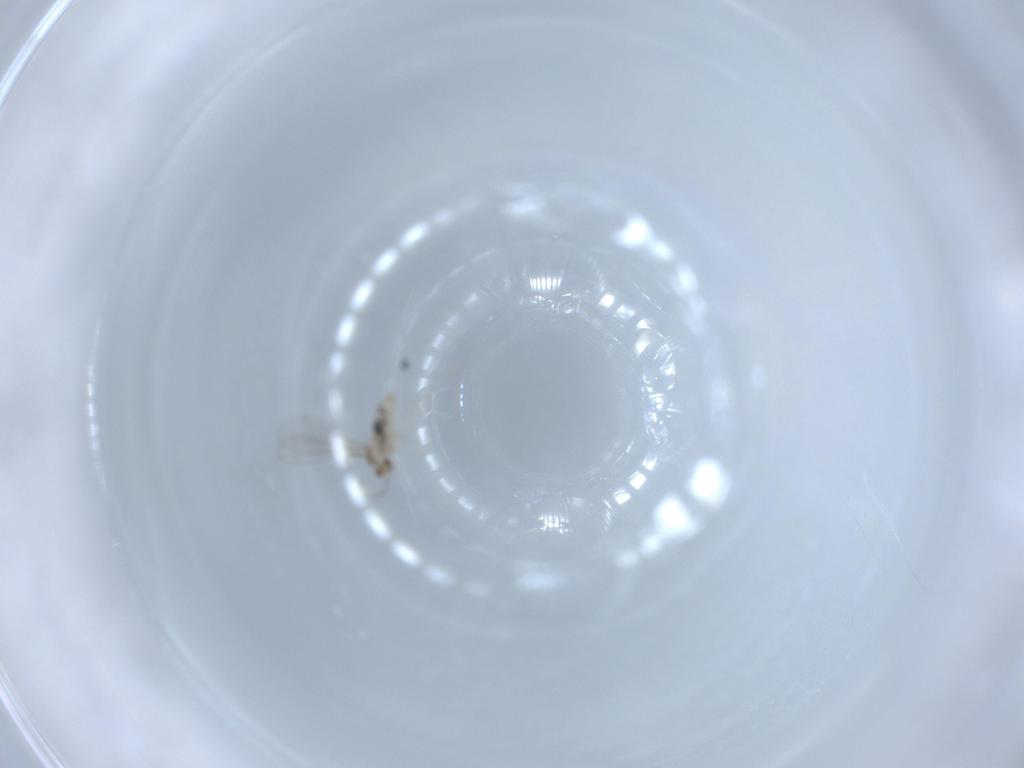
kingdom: Animalia
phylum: Arthropoda
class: Insecta
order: Diptera
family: Cecidomyiidae
